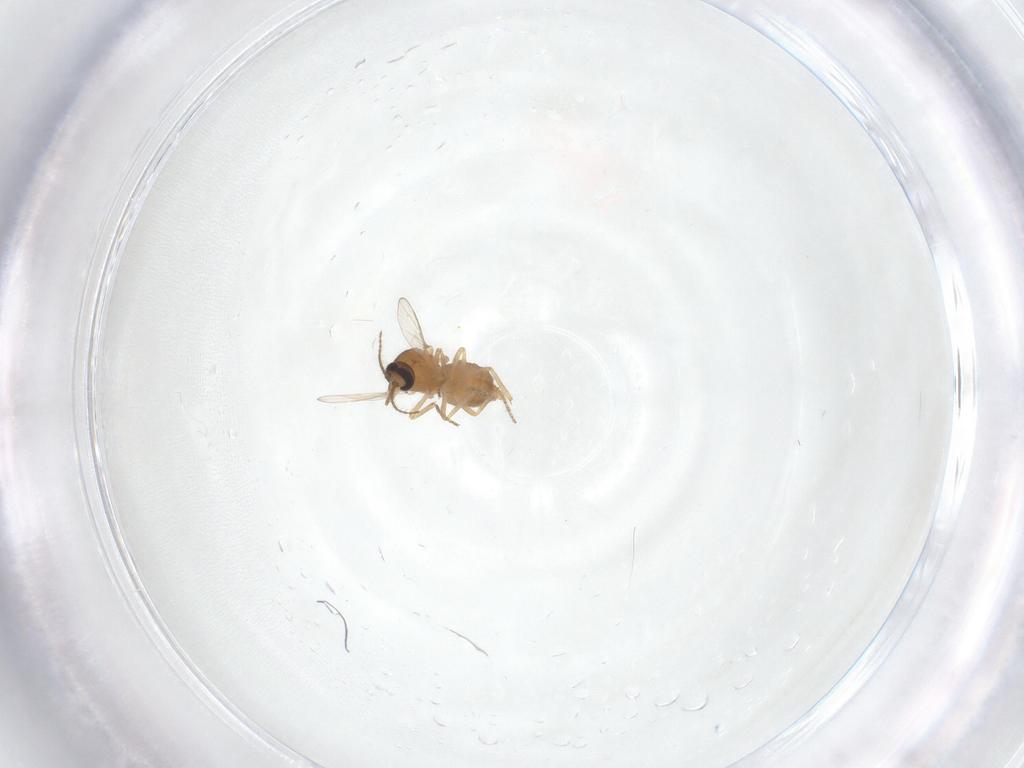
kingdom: Animalia
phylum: Arthropoda
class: Insecta
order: Diptera
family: Ceratopogonidae
